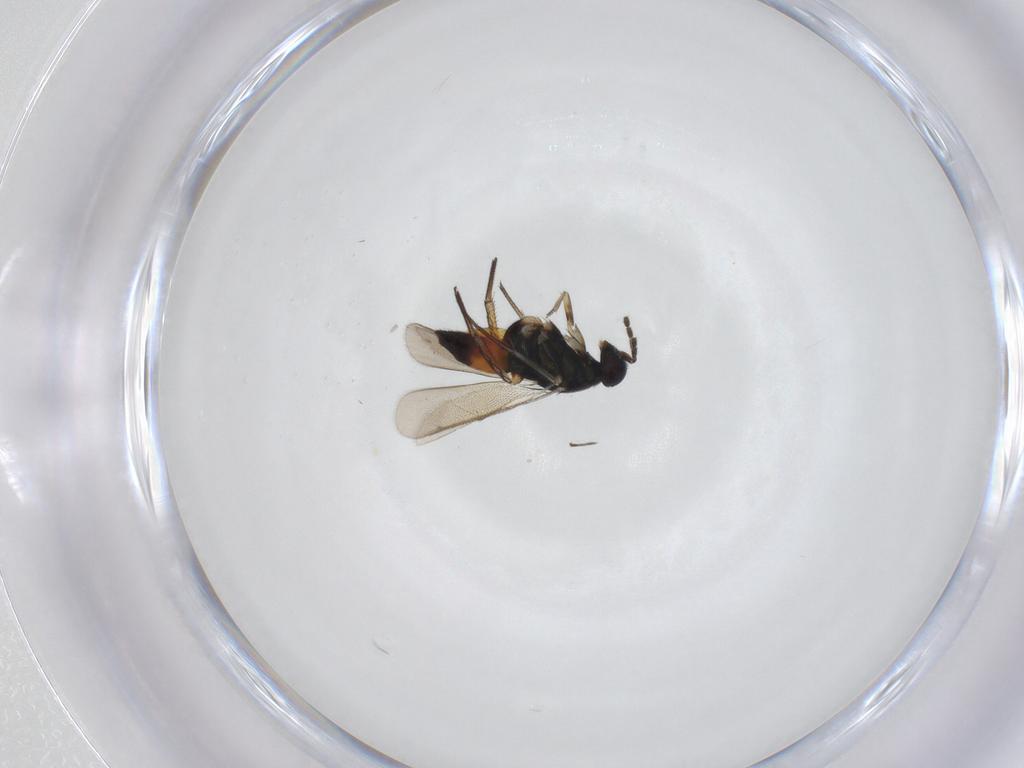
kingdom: Animalia
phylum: Arthropoda
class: Insecta
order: Hymenoptera
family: Eulophidae
